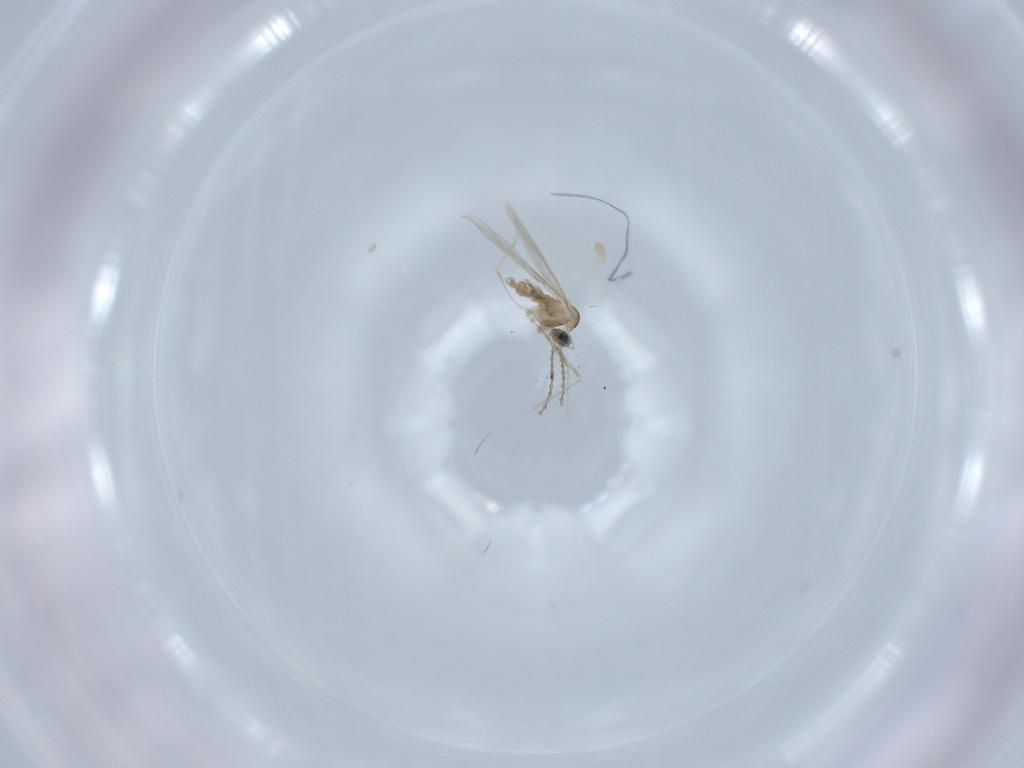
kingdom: Animalia
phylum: Arthropoda
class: Insecta
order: Diptera
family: Cecidomyiidae
